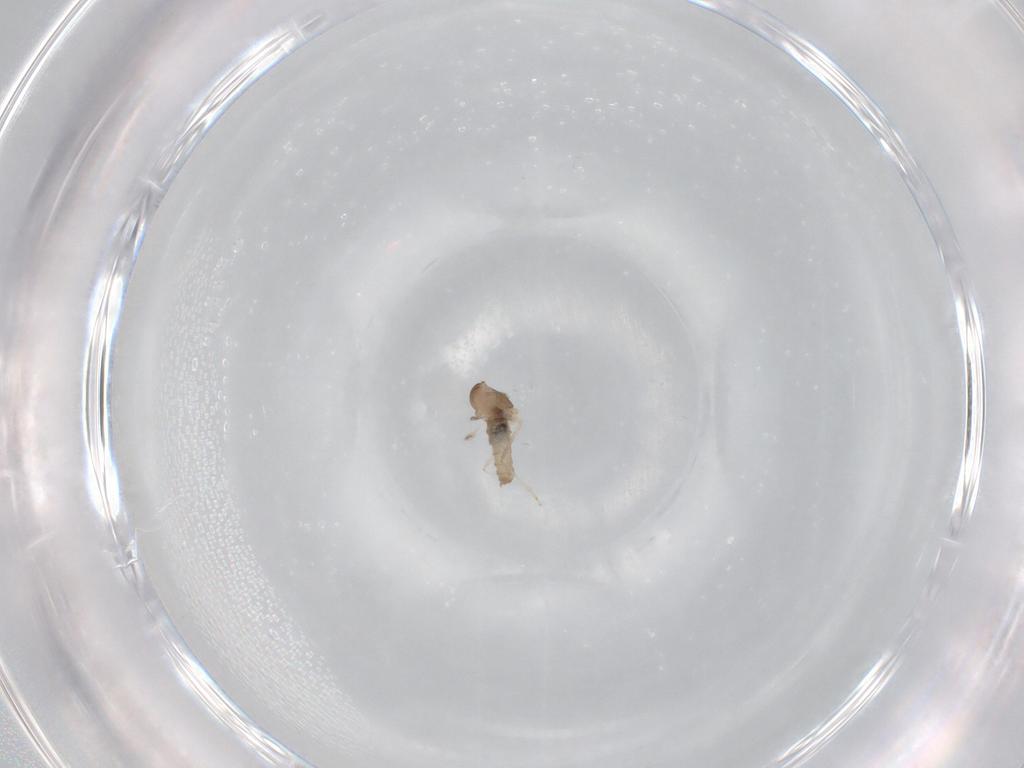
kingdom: Animalia
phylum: Arthropoda
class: Insecta
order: Diptera
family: Cecidomyiidae
